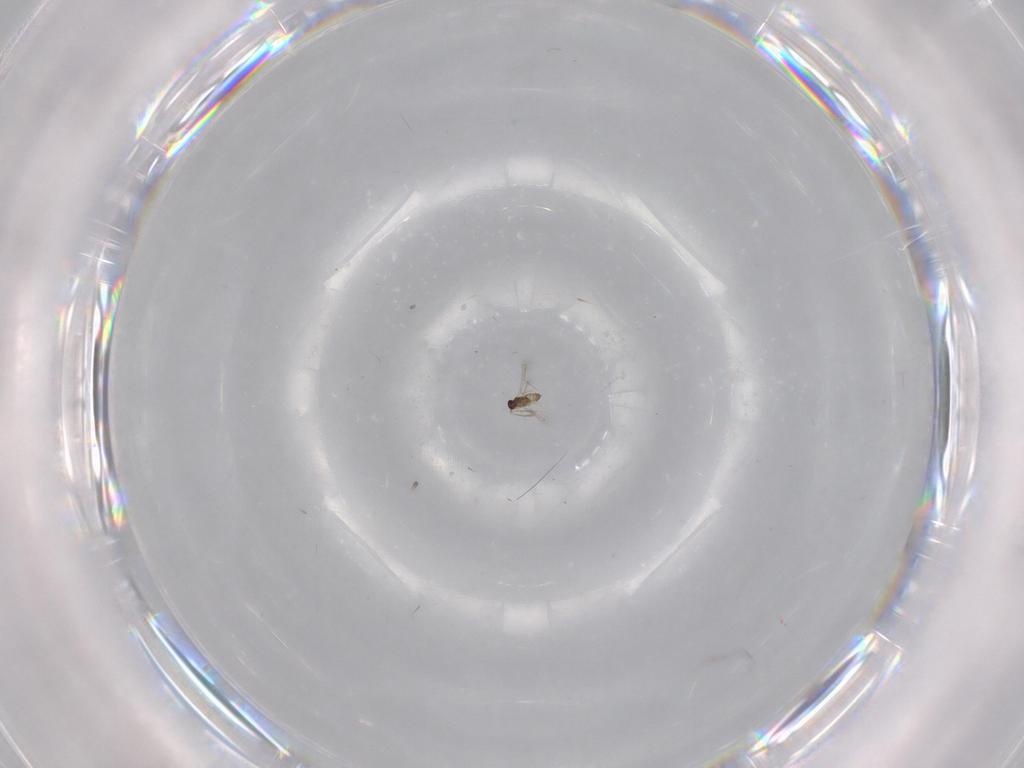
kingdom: Animalia
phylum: Arthropoda
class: Insecta
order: Hymenoptera
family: Mymaridae
